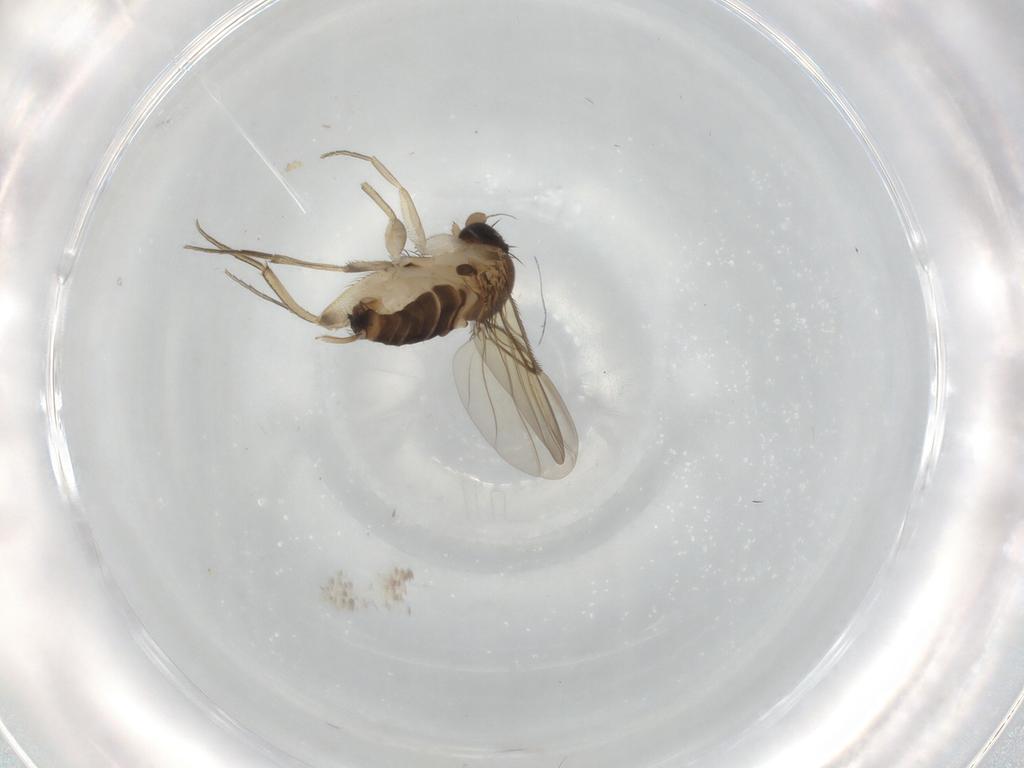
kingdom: Animalia
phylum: Arthropoda
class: Insecta
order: Diptera
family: Phoridae
